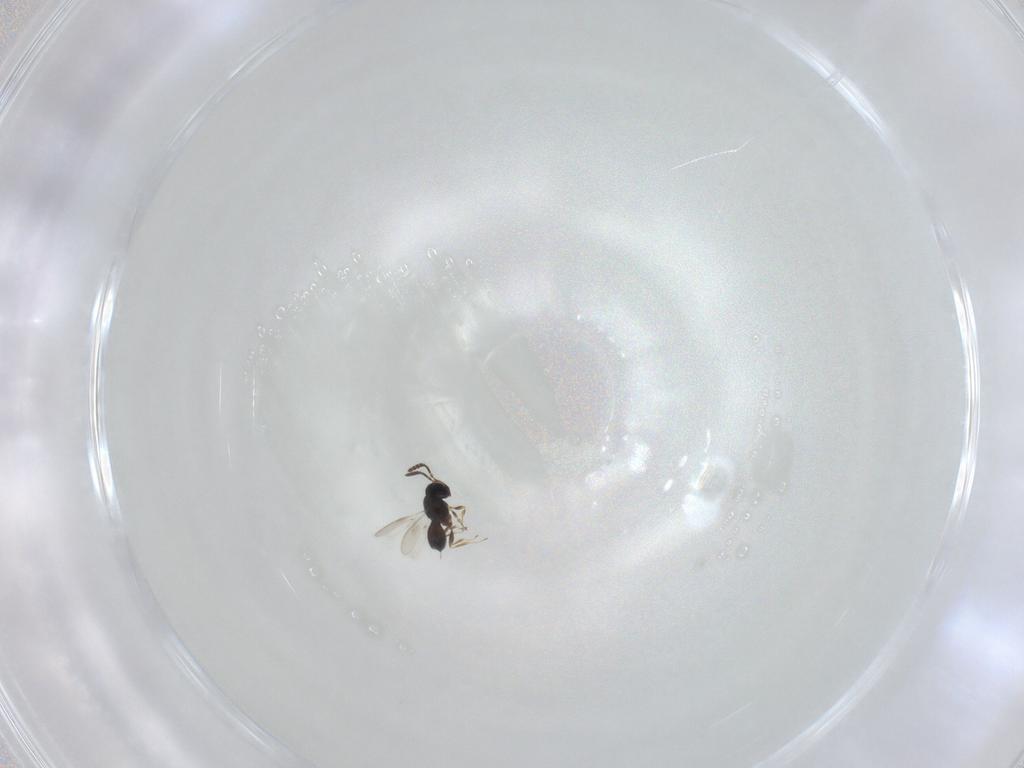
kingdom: Animalia
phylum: Arthropoda
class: Insecta
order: Hymenoptera
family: Scelionidae
